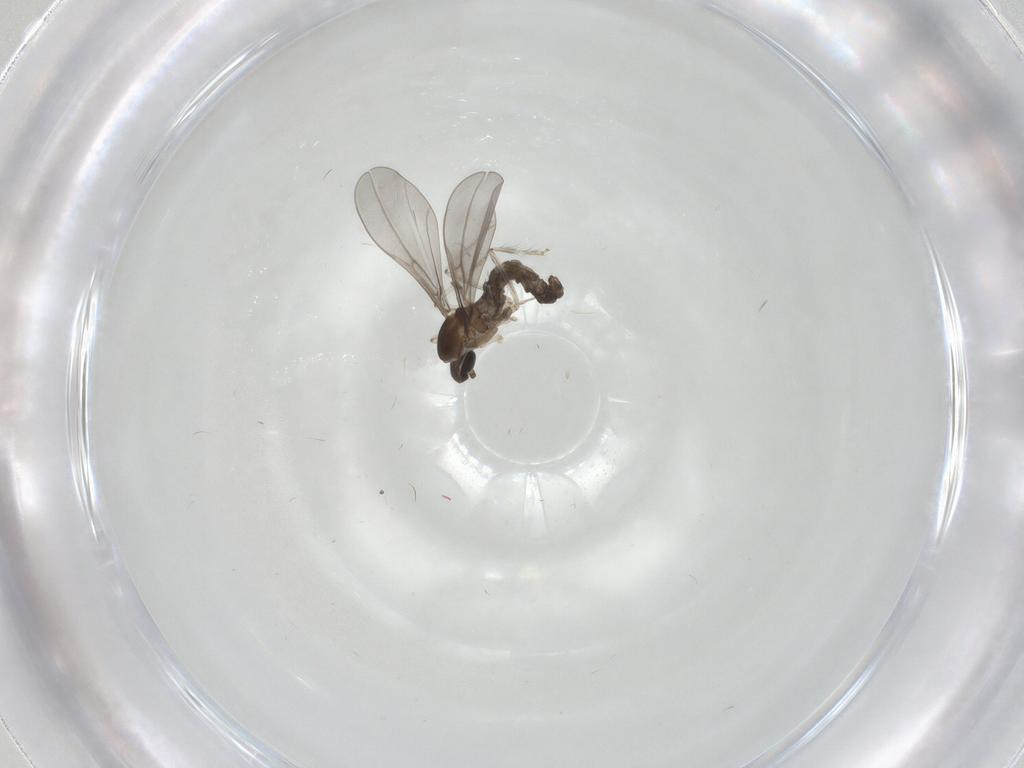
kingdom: Animalia
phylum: Arthropoda
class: Insecta
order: Diptera
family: Cecidomyiidae
